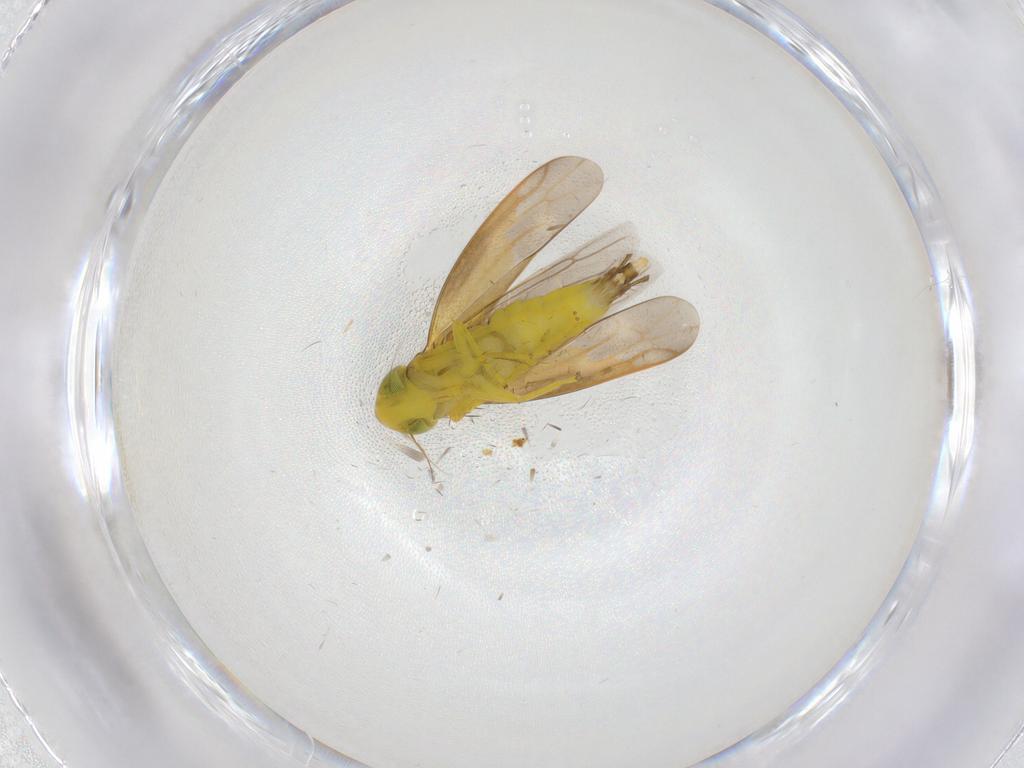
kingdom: Animalia
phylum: Arthropoda
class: Insecta
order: Hemiptera
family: Cicadellidae
